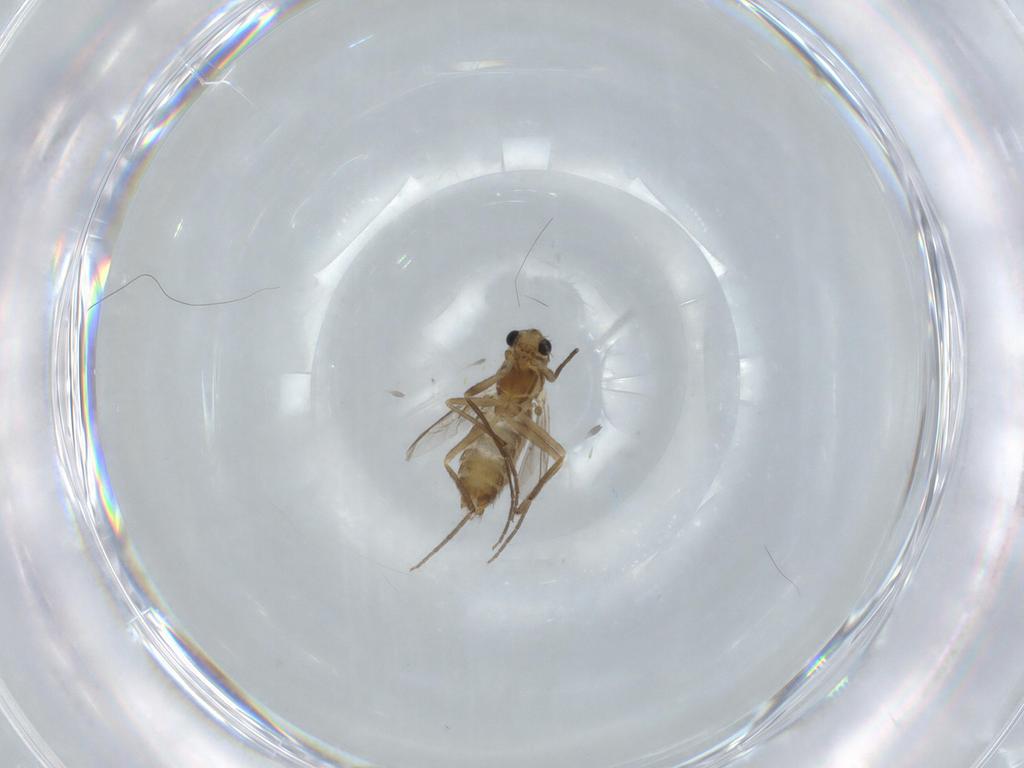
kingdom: Animalia
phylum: Arthropoda
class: Insecta
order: Diptera
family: Chironomidae
